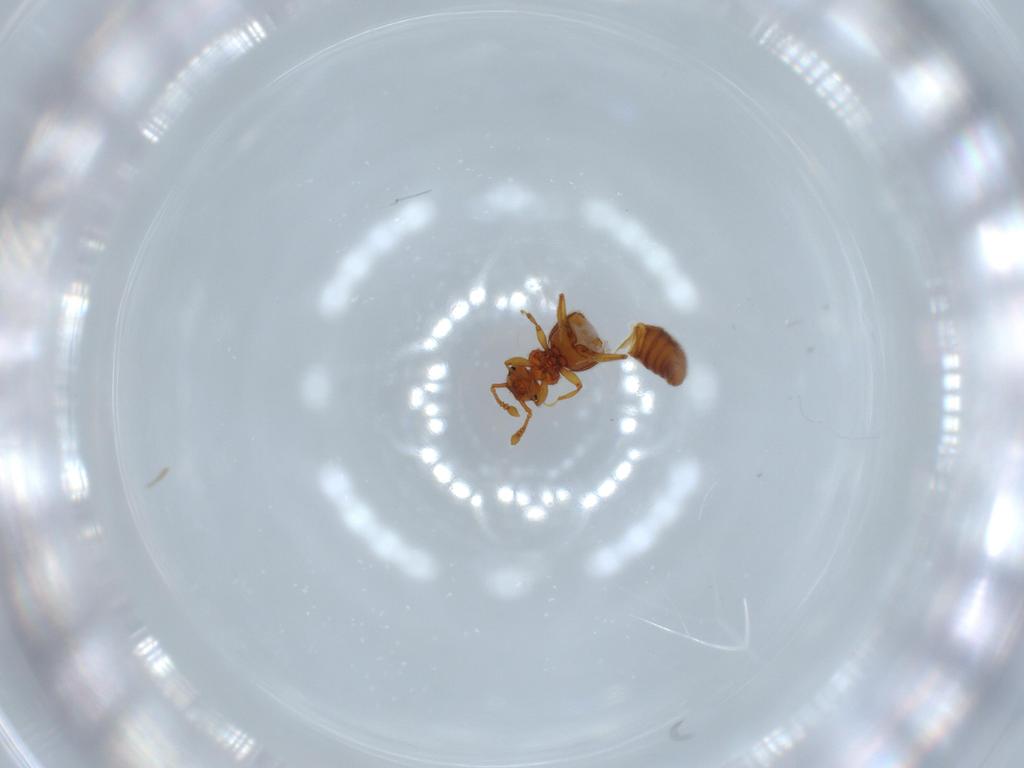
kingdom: Animalia
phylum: Arthropoda
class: Insecta
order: Coleoptera
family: Staphylinidae
